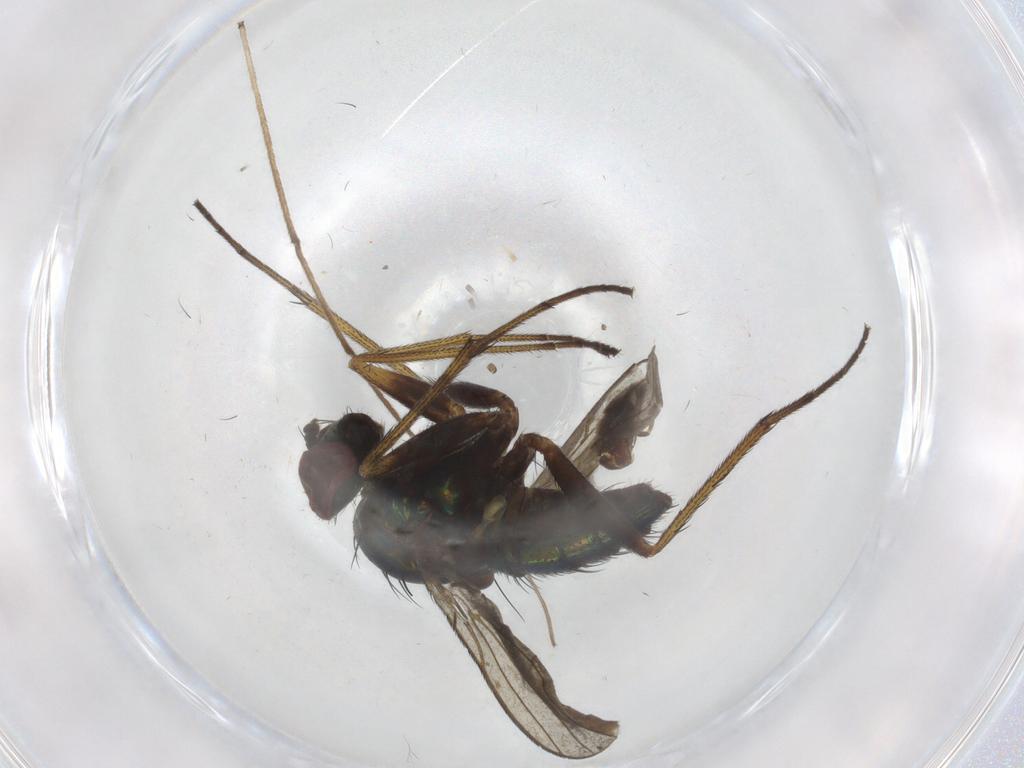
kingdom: Animalia
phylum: Arthropoda
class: Insecta
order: Diptera
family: Dolichopodidae
